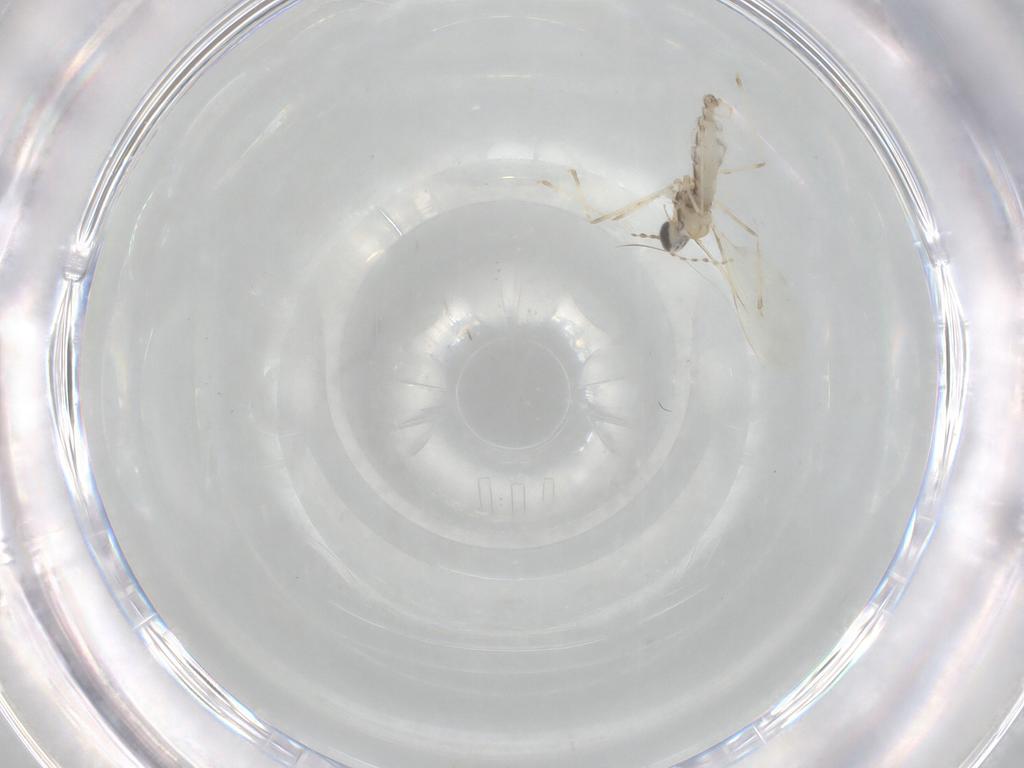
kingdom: Animalia
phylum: Arthropoda
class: Insecta
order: Diptera
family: Cecidomyiidae
